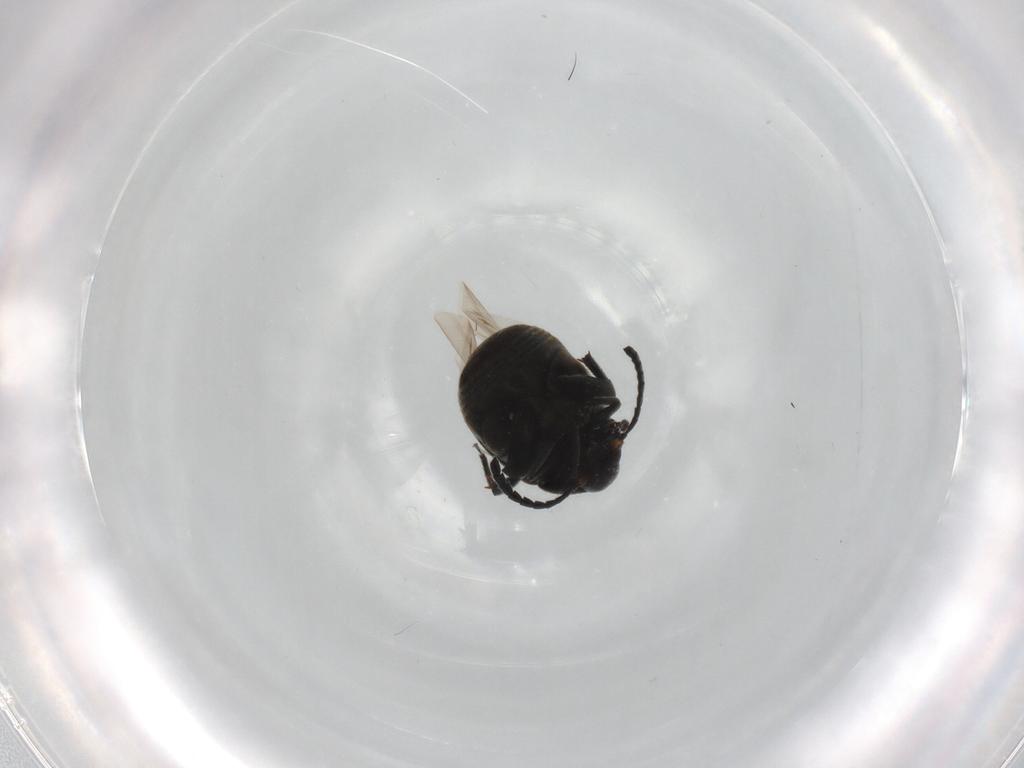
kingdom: Animalia
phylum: Arthropoda
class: Insecta
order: Coleoptera
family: Chrysomelidae
